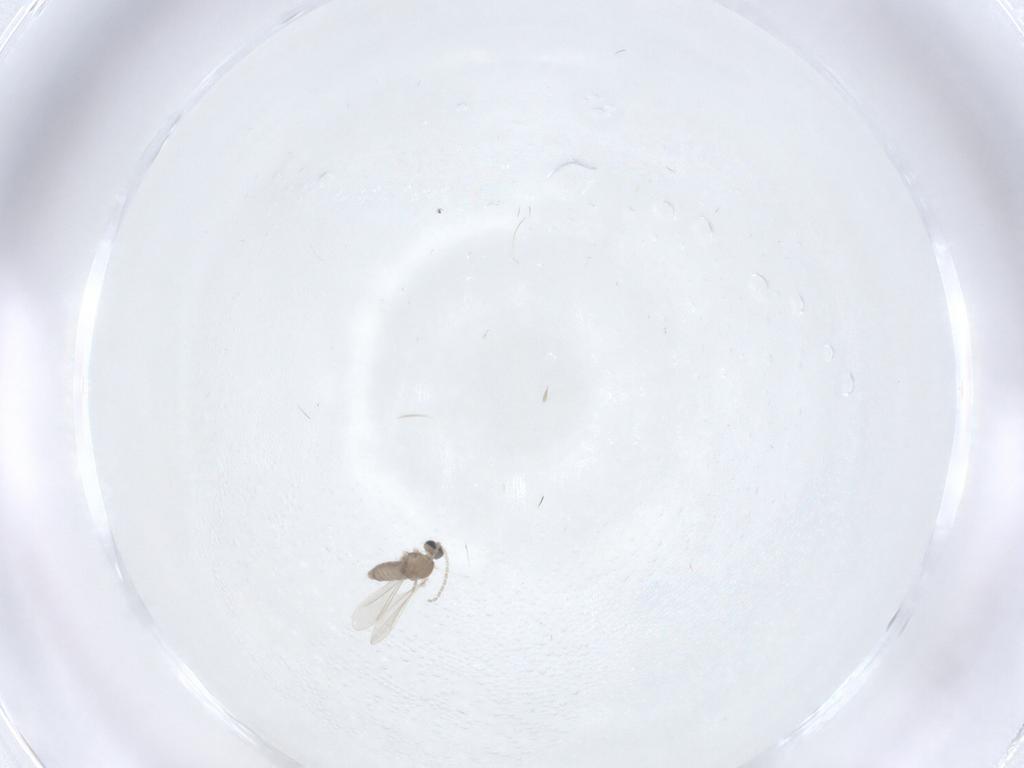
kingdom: Animalia
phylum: Arthropoda
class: Insecta
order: Diptera
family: Cecidomyiidae
